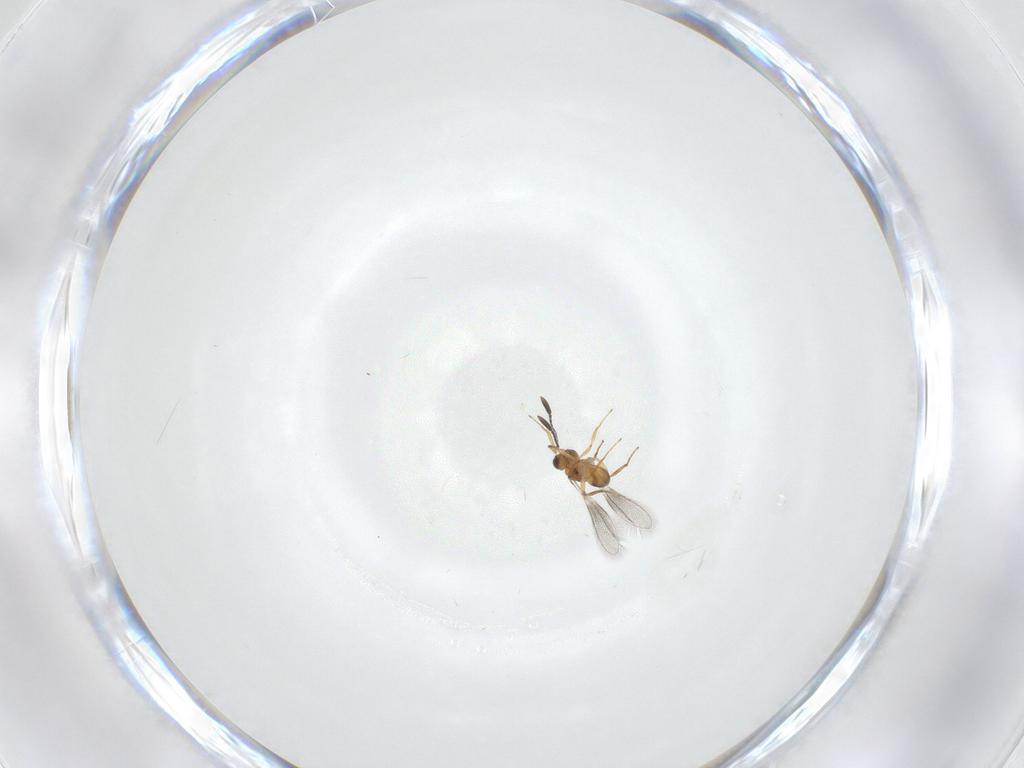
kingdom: Animalia
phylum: Arthropoda
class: Insecta
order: Hymenoptera
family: Mymaridae
